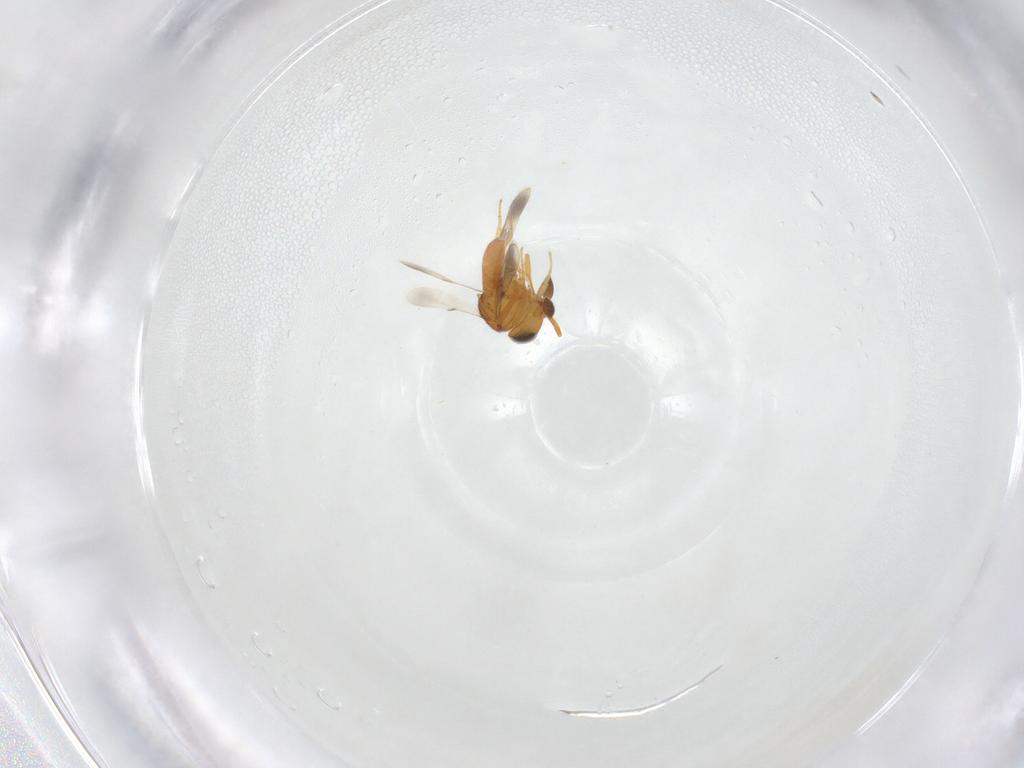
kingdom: Animalia
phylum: Arthropoda
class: Insecta
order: Hymenoptera
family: Scelionidae
